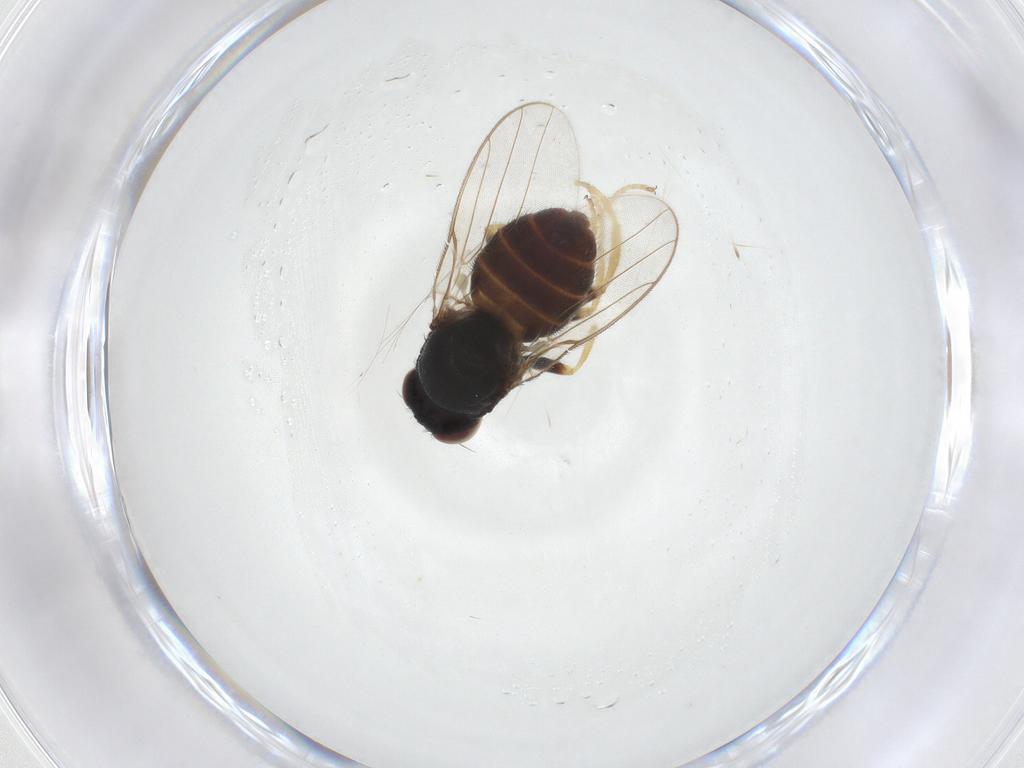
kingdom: Animalia
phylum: Arthropoda
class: Insecta
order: Diptera
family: Chloropidae
